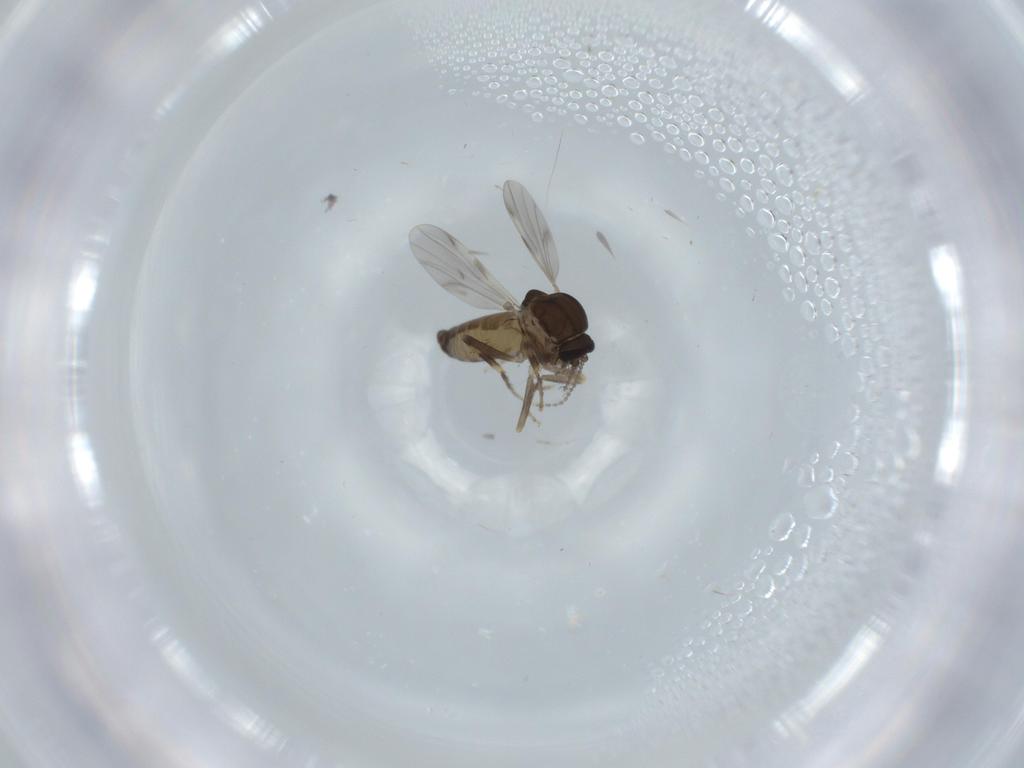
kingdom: Animalia
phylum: Arthropoda
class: Insecta
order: Diptera
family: Ceratopogonidae
